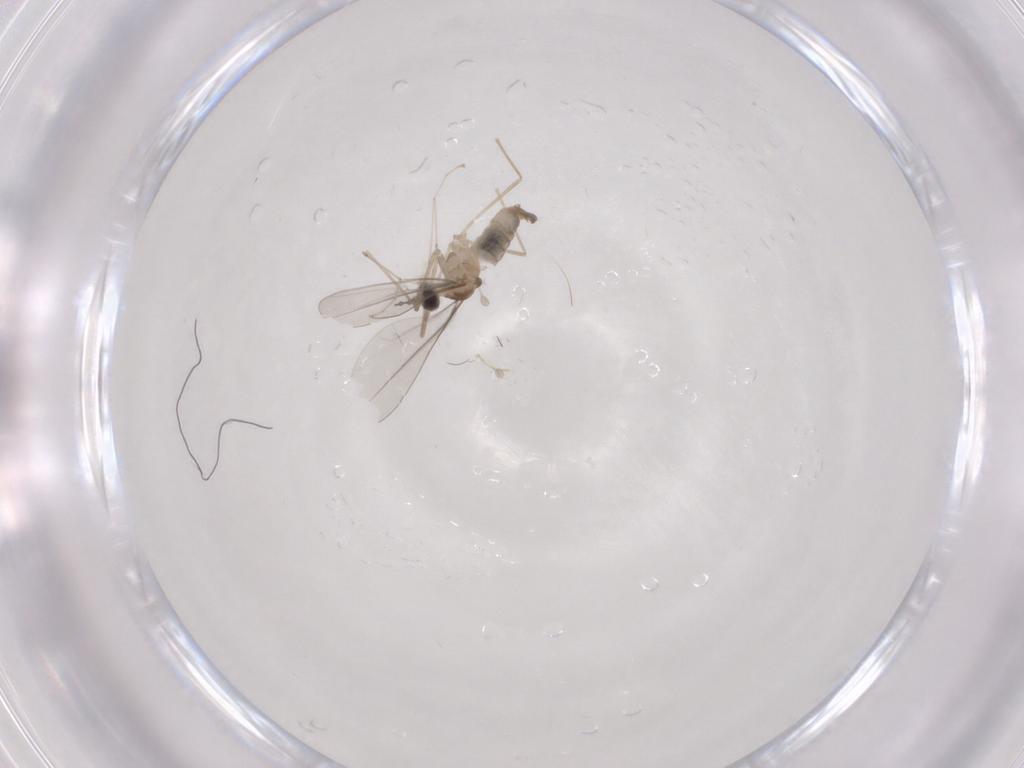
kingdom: Animalia
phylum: Arthropoda
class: Insecta
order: Diptera
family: Cecidomyiidae
